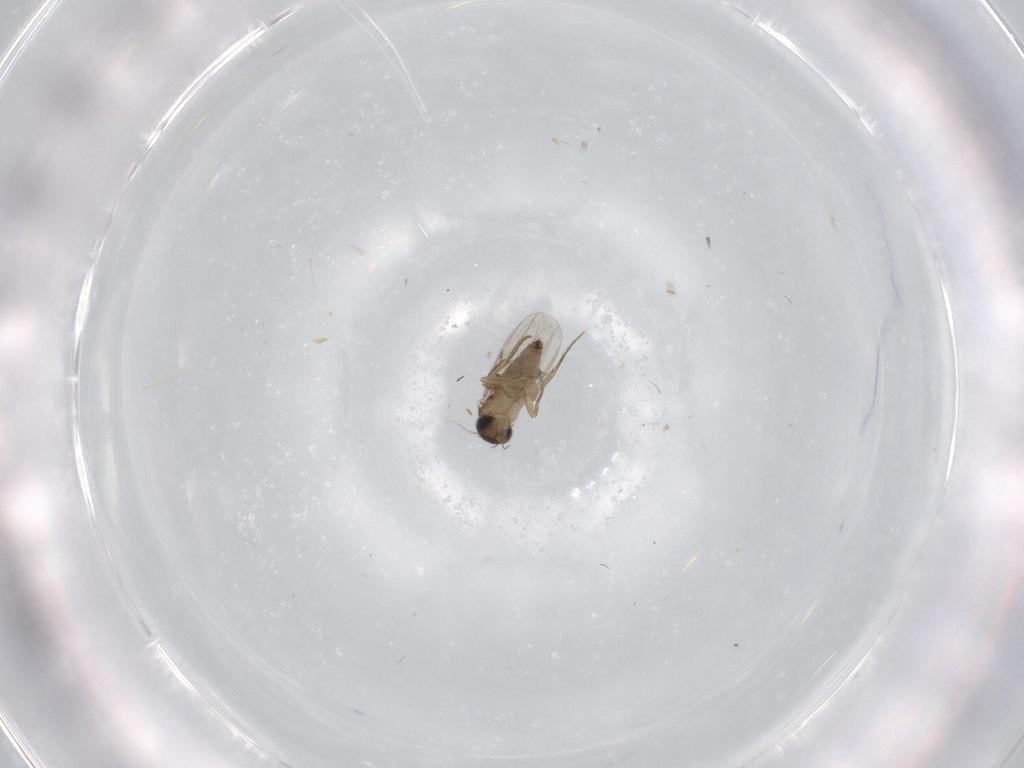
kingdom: Animalia
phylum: Arthropoda
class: Insecta
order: Diptera
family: Phoridae
